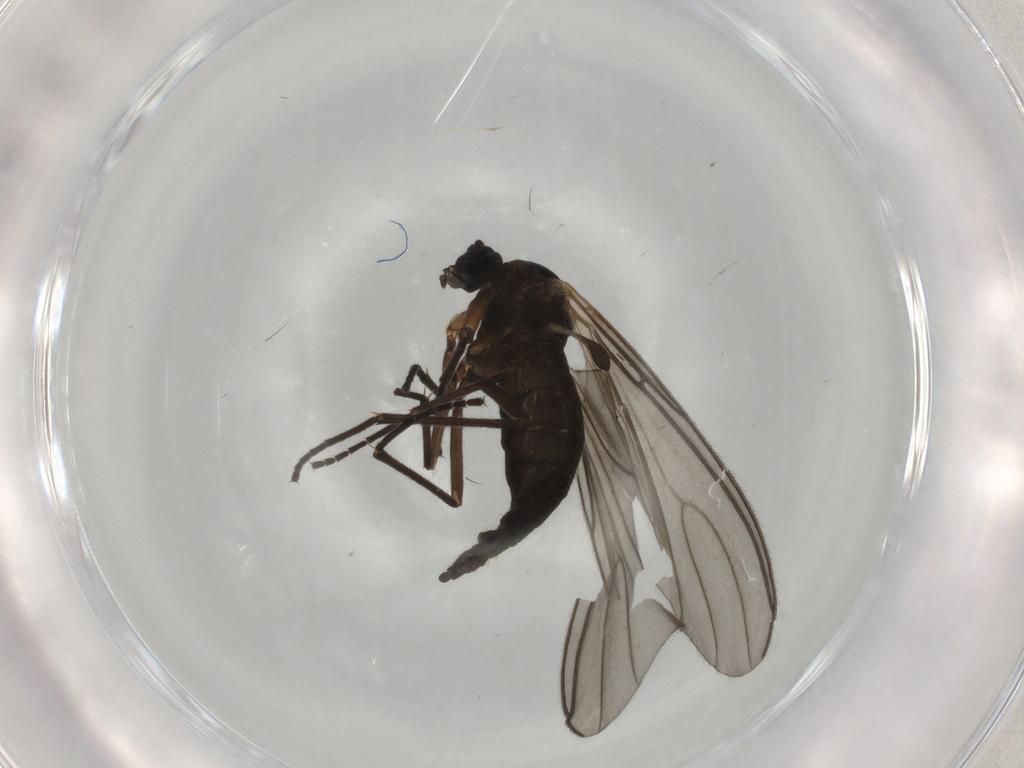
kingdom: Animalia
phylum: Arthropoda
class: Insecta
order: Diptera
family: Sciaridae
